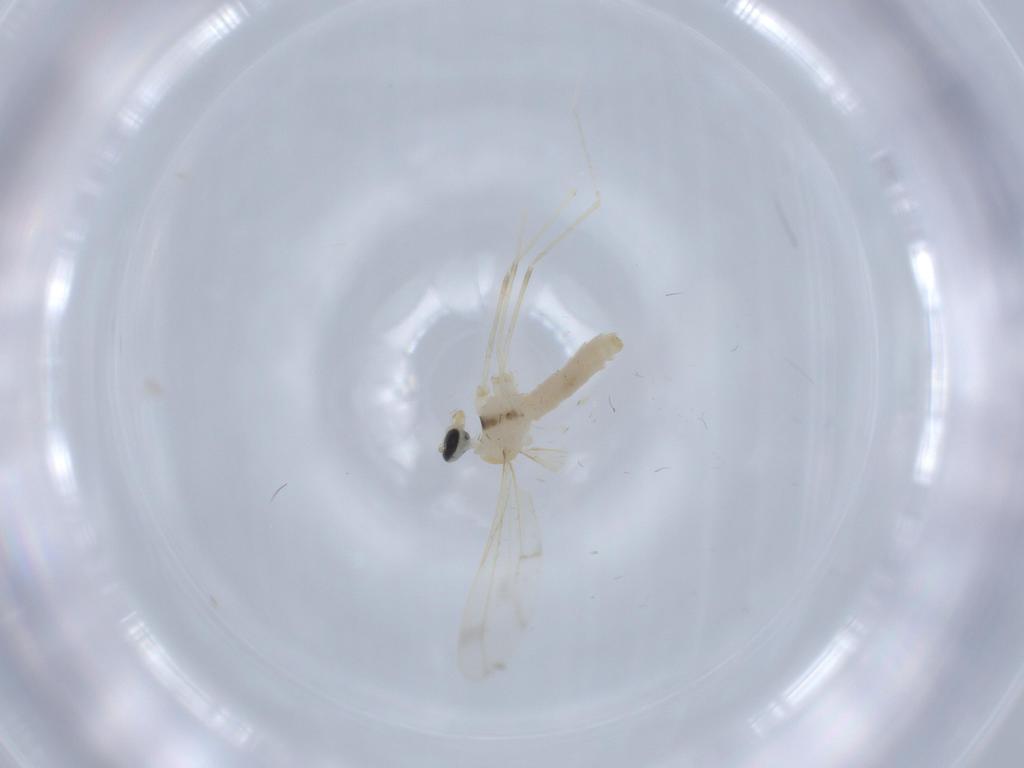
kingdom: Animalia
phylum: Arthropoda
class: Insecta
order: Diptera
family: Cecidomyiidae
